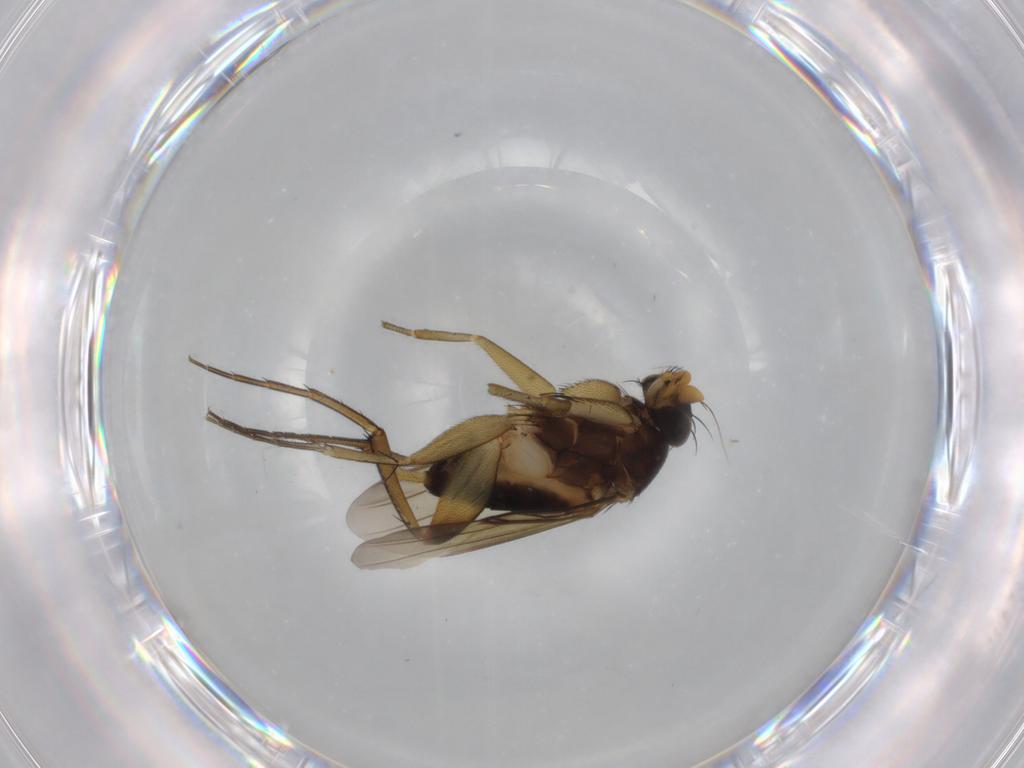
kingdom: Animalia
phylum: Arthropoda
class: Insecta
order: Diptera
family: Phoridae
